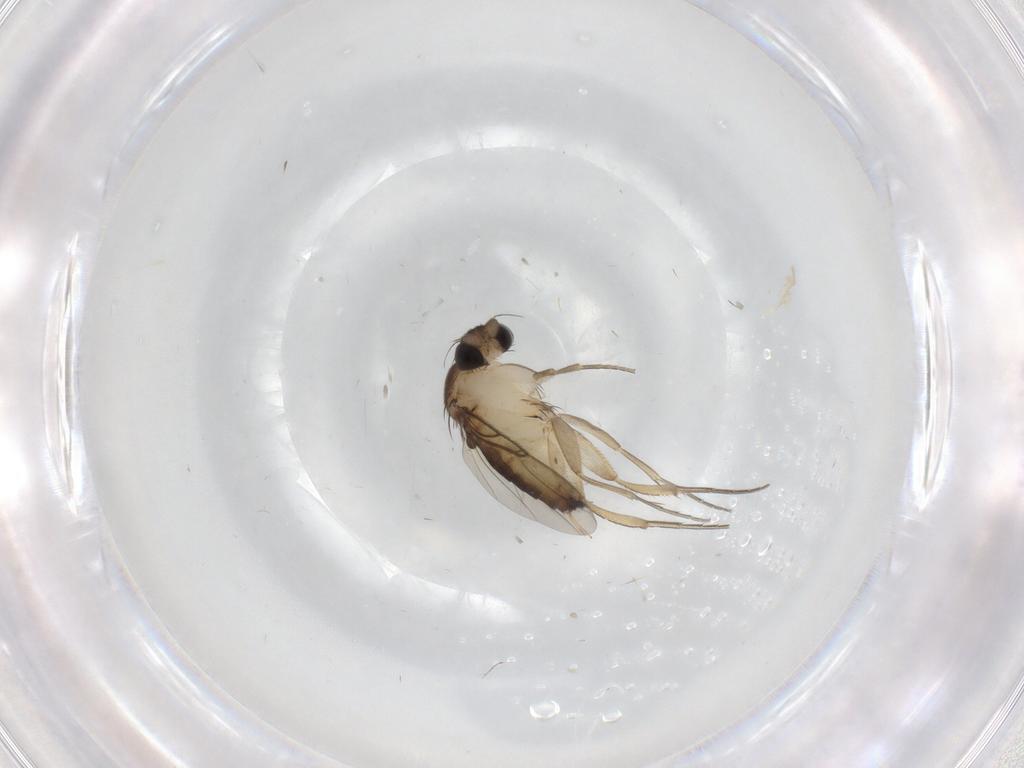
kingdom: Animalia
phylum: Arthropoda
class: Insecta
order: Diptera
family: Phoridae
